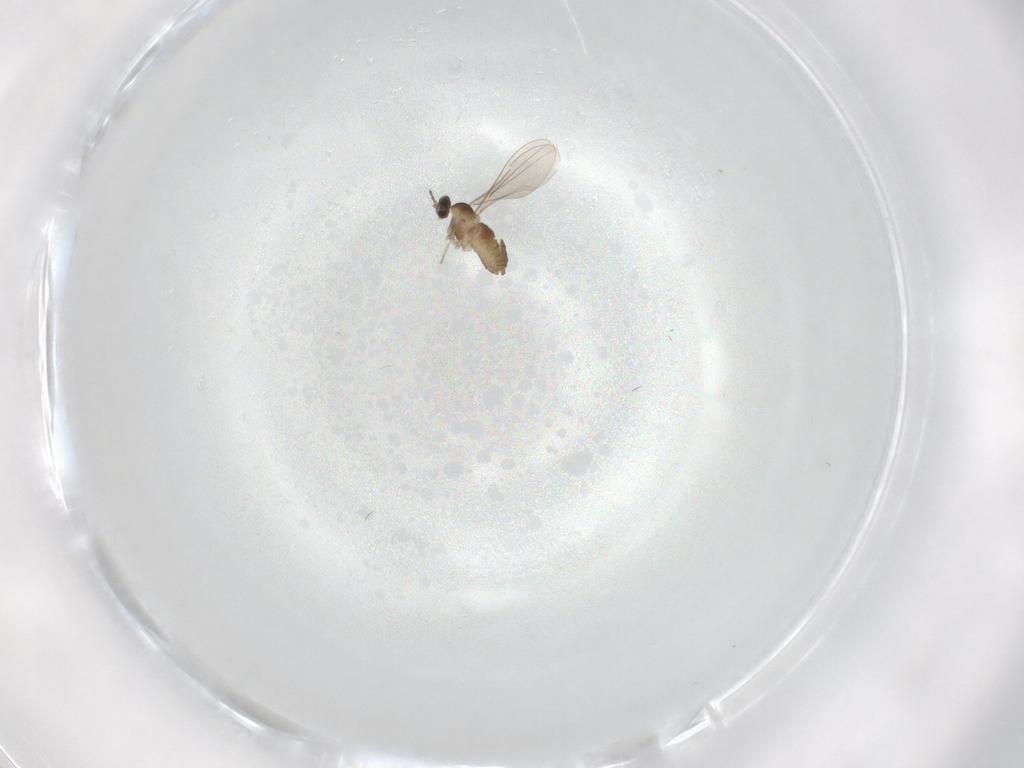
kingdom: Animalia
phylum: Arthropoda
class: Insecta
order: Diptera
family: Cecidomyiidae
